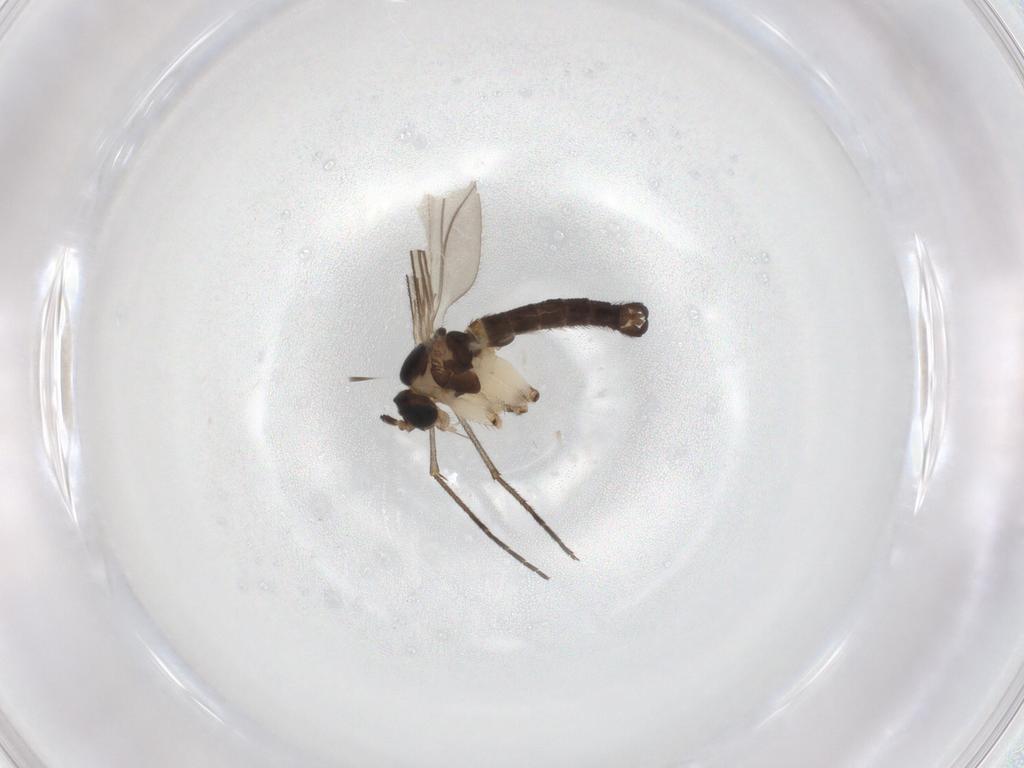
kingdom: Animalia
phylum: Arthropoda
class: Insecta
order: Diptera
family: Sciaridae
